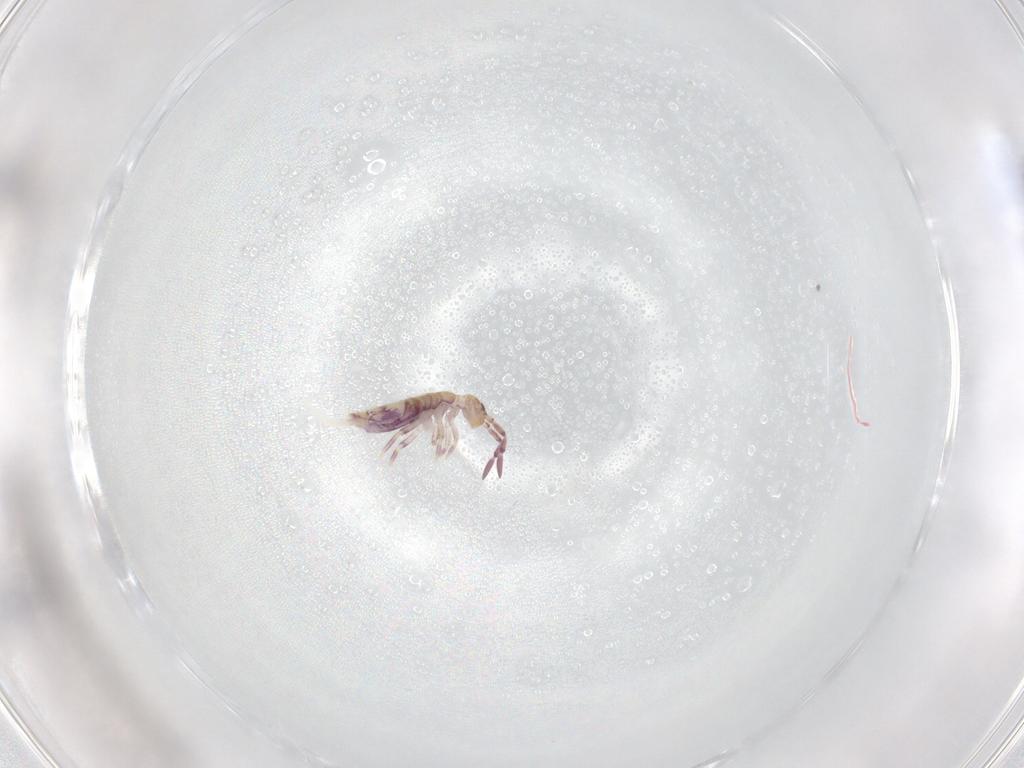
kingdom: Animalia
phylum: Arthropoda
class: Collembola
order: Entomobryomorpha
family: Entomobryidae
